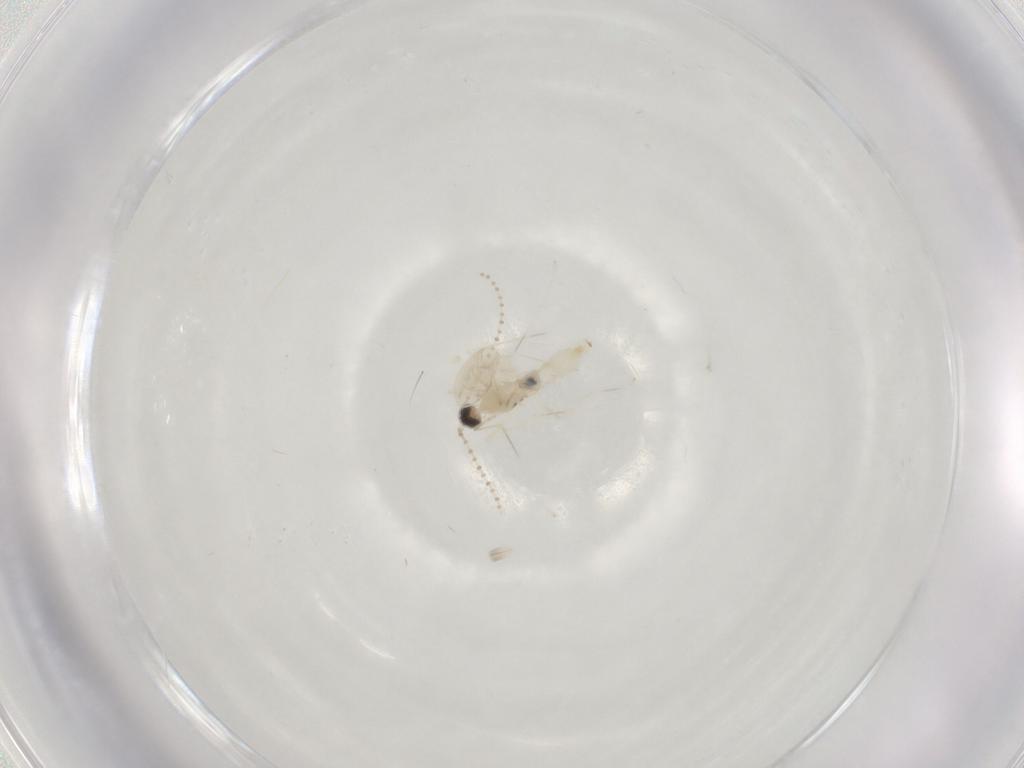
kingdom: Animalia
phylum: Arthropoda
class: Insecta
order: Diptera
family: Cecidomyiidae
